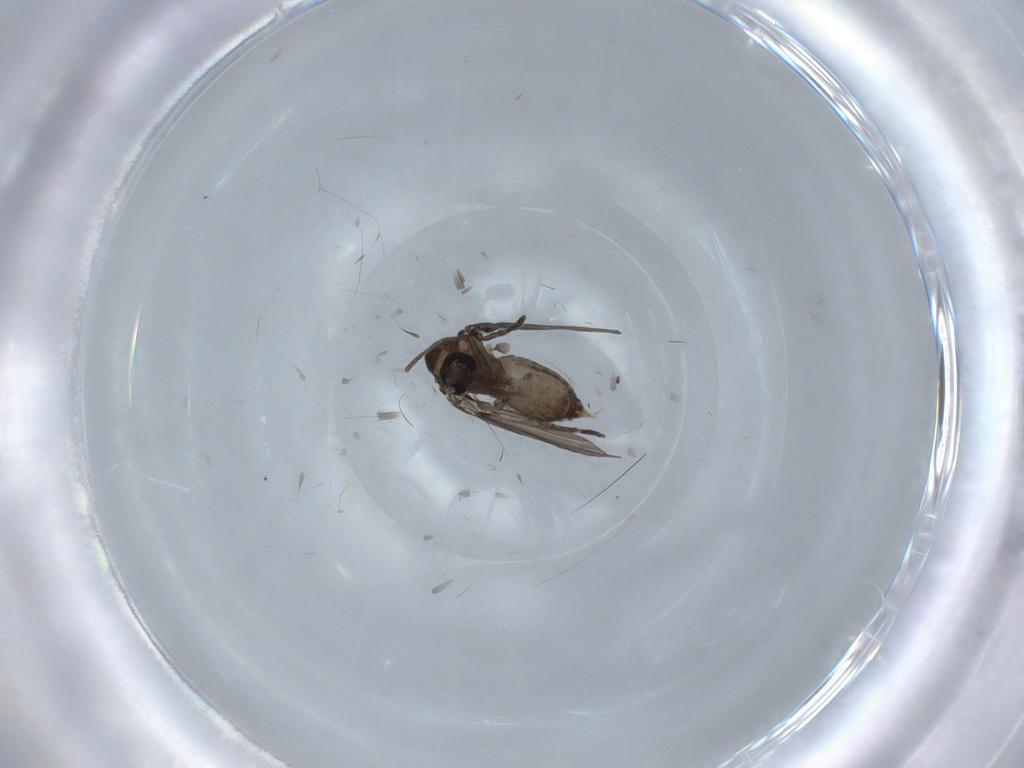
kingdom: Animalia
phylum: Arthropoda
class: Insecta
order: Diptera
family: Psychodidae
